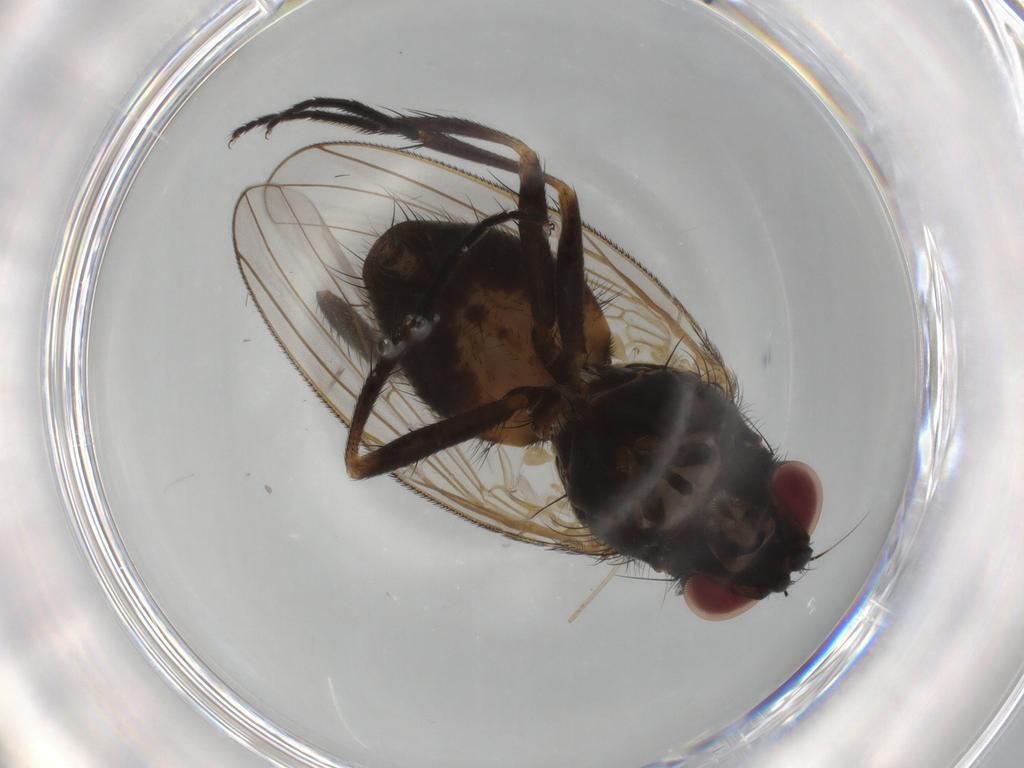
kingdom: Animalia
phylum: Arthropoda
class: Insecta
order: Diptera
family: Fannia
